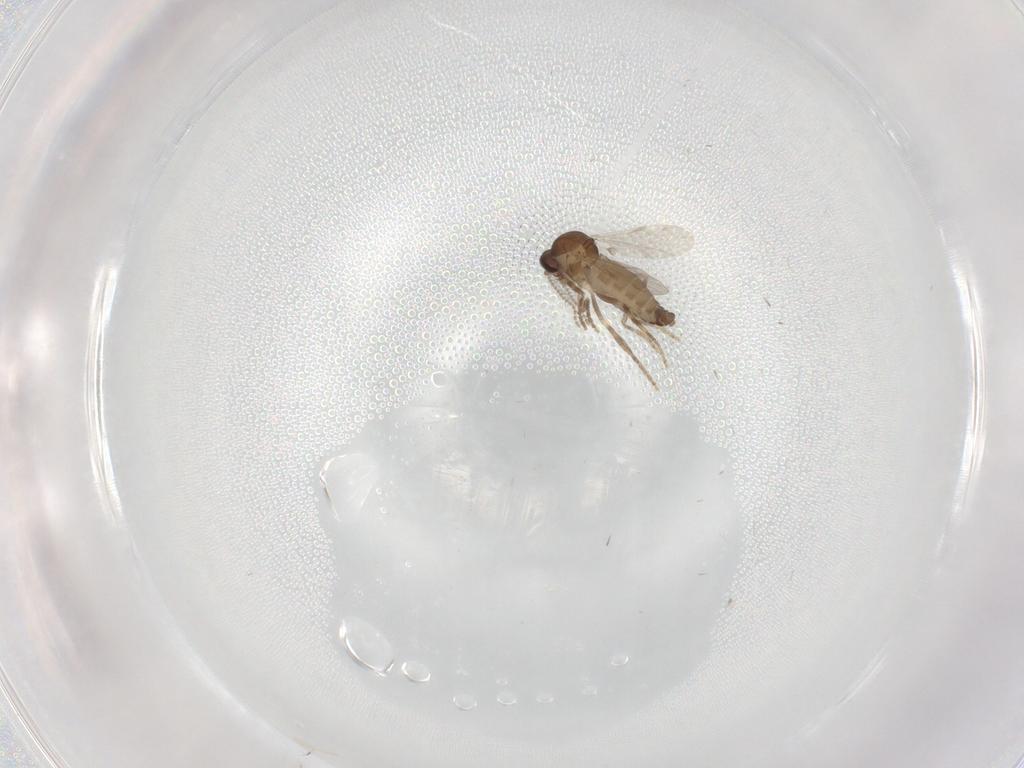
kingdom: Animalia
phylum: Arthropoda
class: Insecta
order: Diptera
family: Ceratopogonidae
